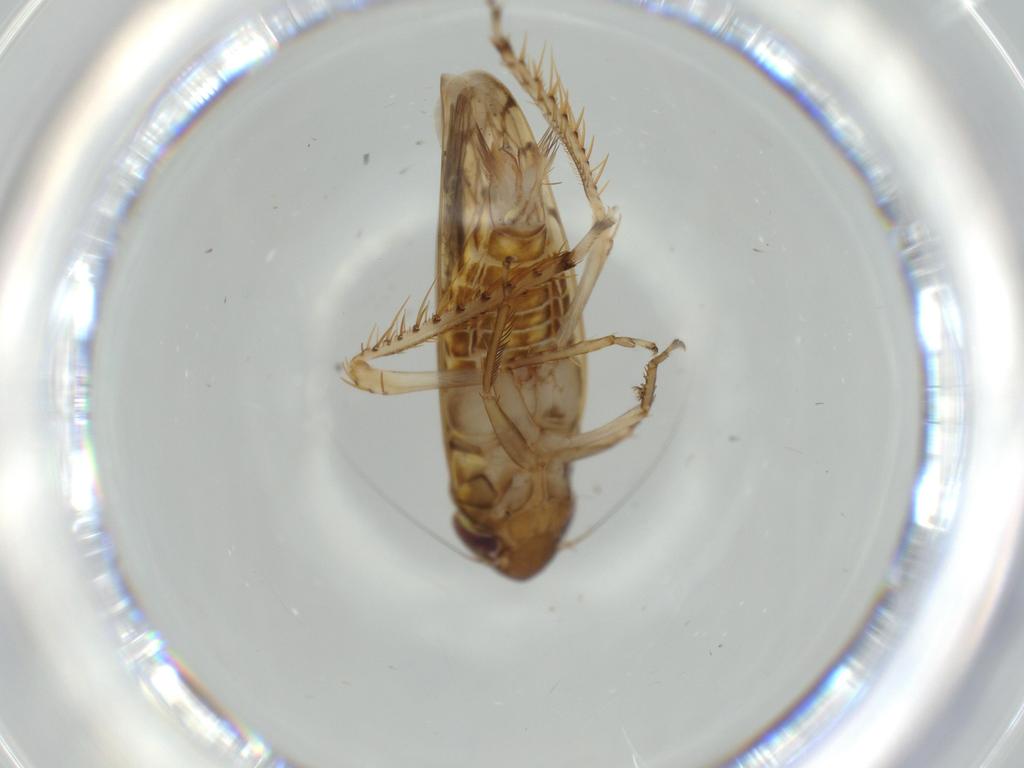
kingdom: Animalia
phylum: Arthropoda
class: Insecta
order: Hemiptera
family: Cicadellidae
